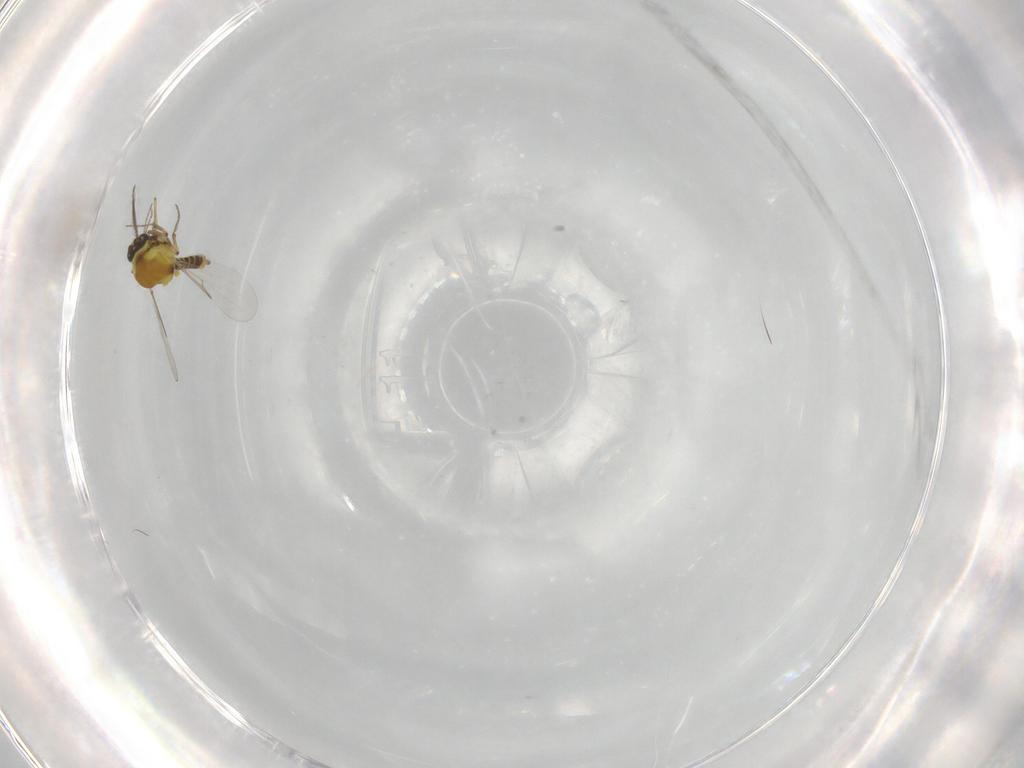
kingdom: Animalia
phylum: Arthropoda
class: Insecta
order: Diptera
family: Ceratopogonidae
